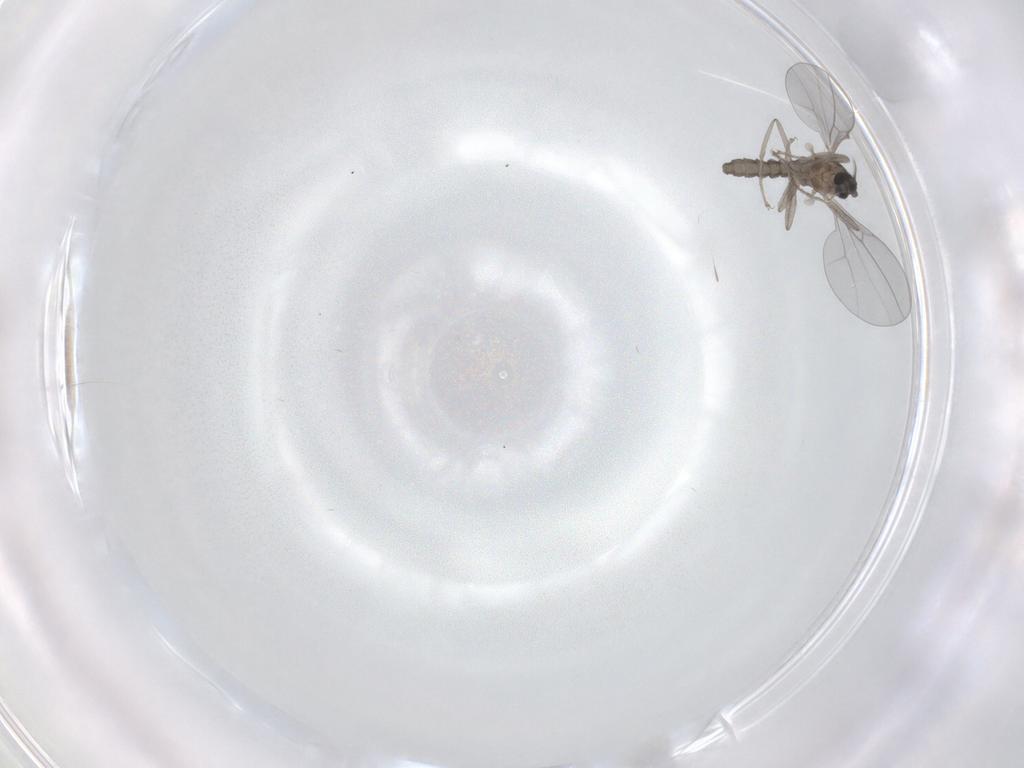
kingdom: Animalia
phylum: Arthropoda
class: Insecta
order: Diptera
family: Cecidomyiidae
